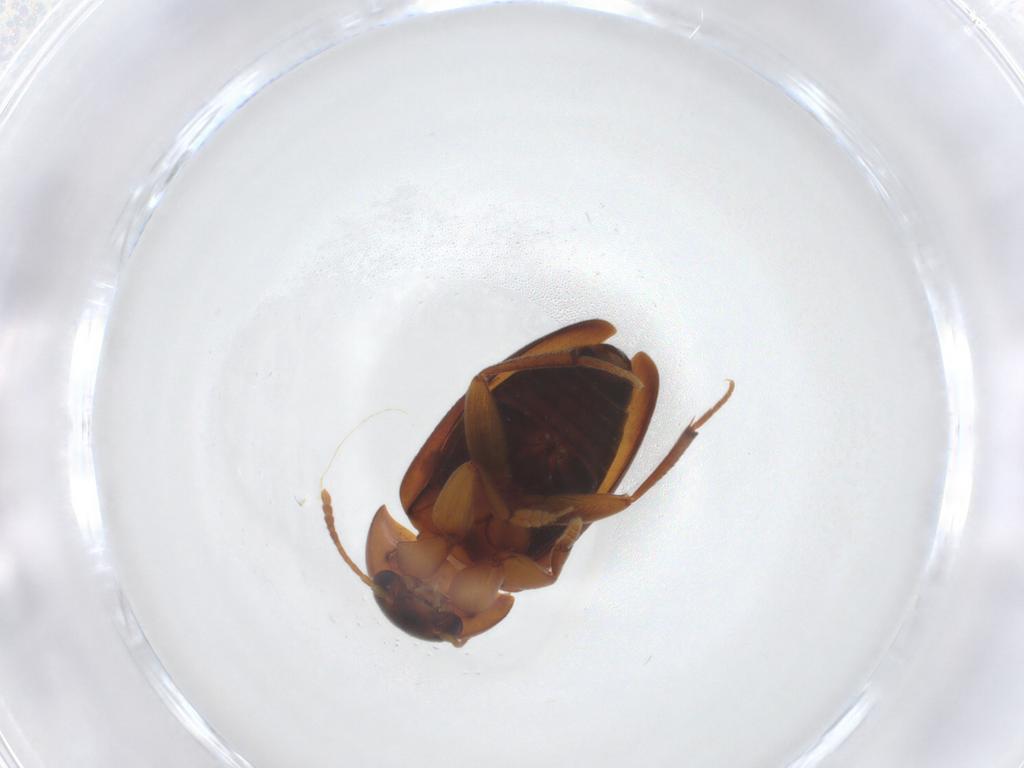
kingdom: Animalia
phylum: Arthropoda
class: Insecta
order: Coleoptera
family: Leiodidae
